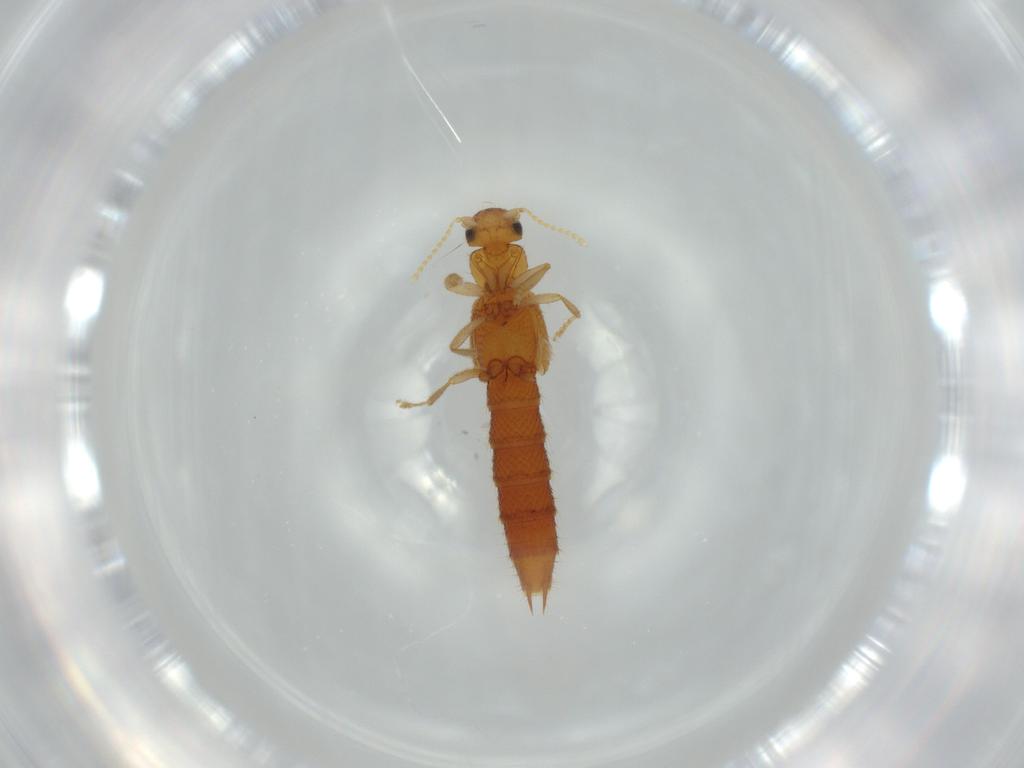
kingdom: Animalia
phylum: Arthropoda
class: Insecta
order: Coleoptera
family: Staphylinidae
